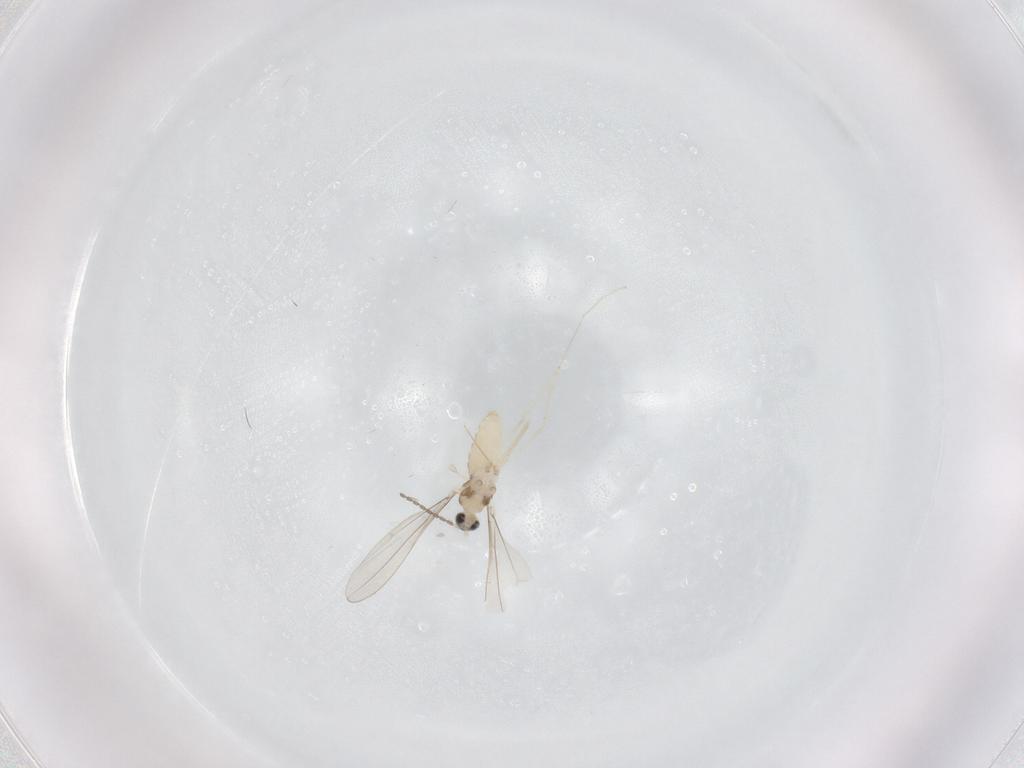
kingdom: Animalia
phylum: Arthropoda
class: Insecta
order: Diptera
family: Cecidomyiidae
